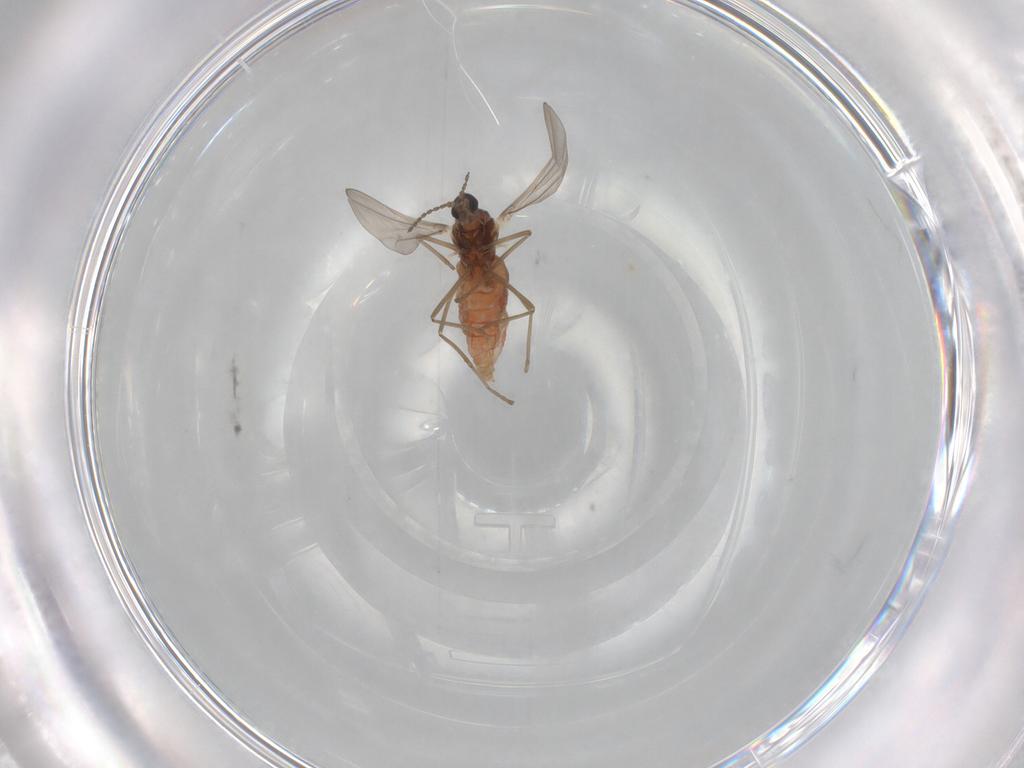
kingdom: Animalia
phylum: Arthropoda
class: Insecta
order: Diptera
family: Cecidomyiidae
